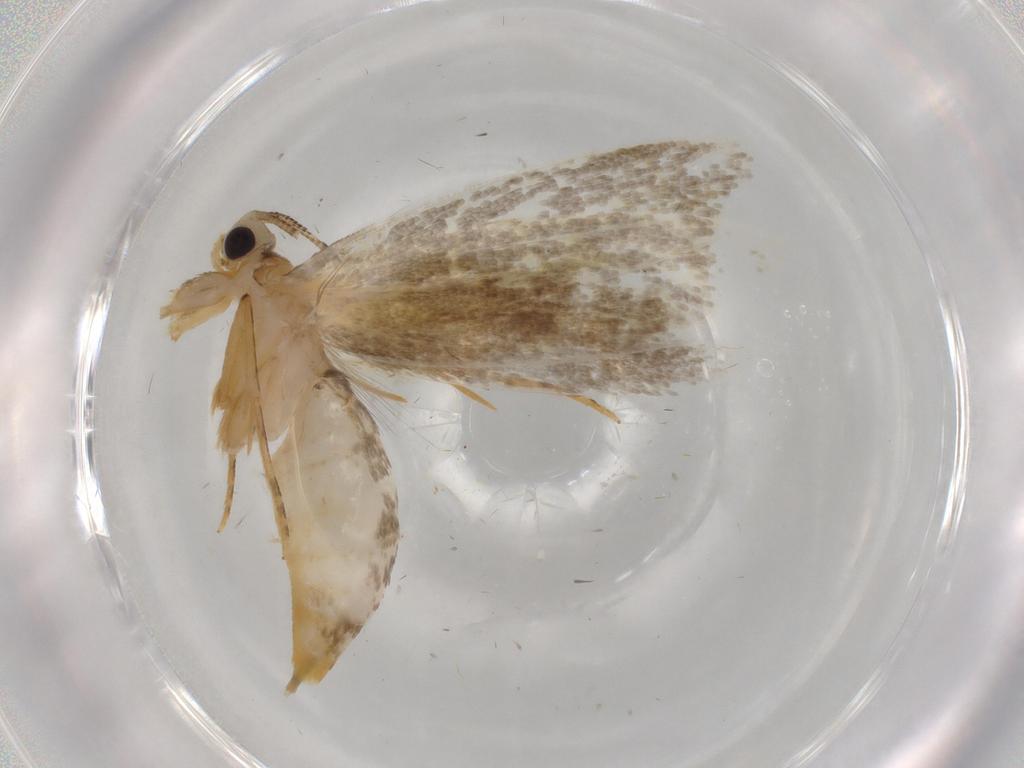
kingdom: Animalia
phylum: Arthropoda
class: Insecta
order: Lepidoptera
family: Tineidae
